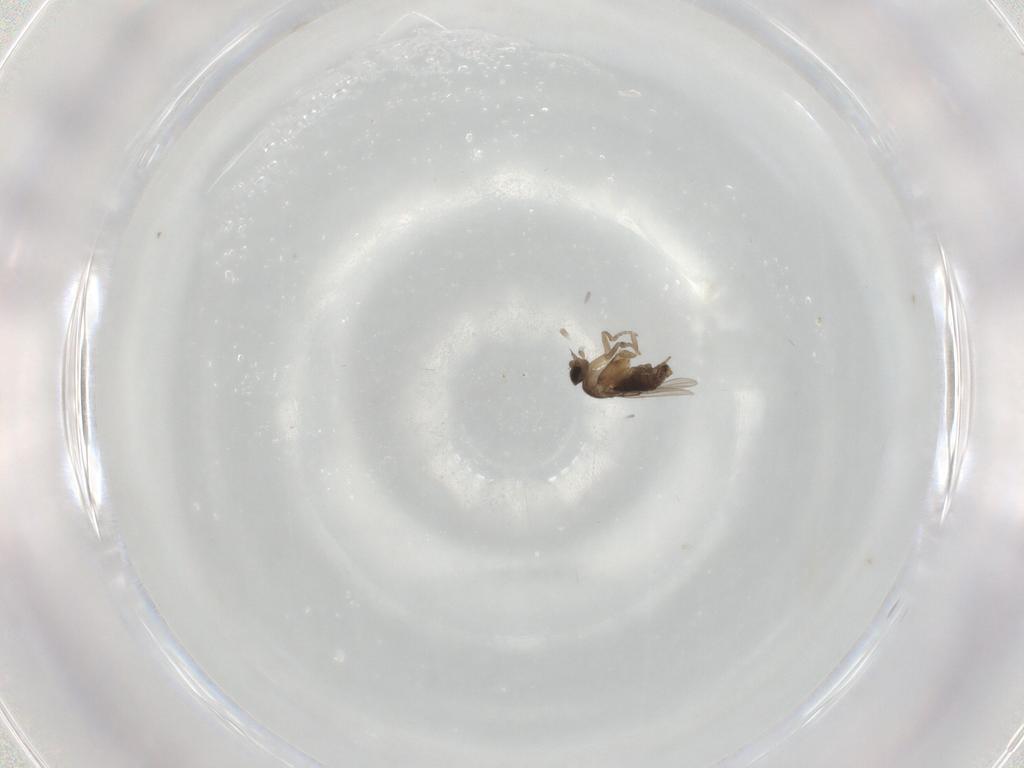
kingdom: Animalia
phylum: Arthropoda
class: Insecta
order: Diptera
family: Phoridae
